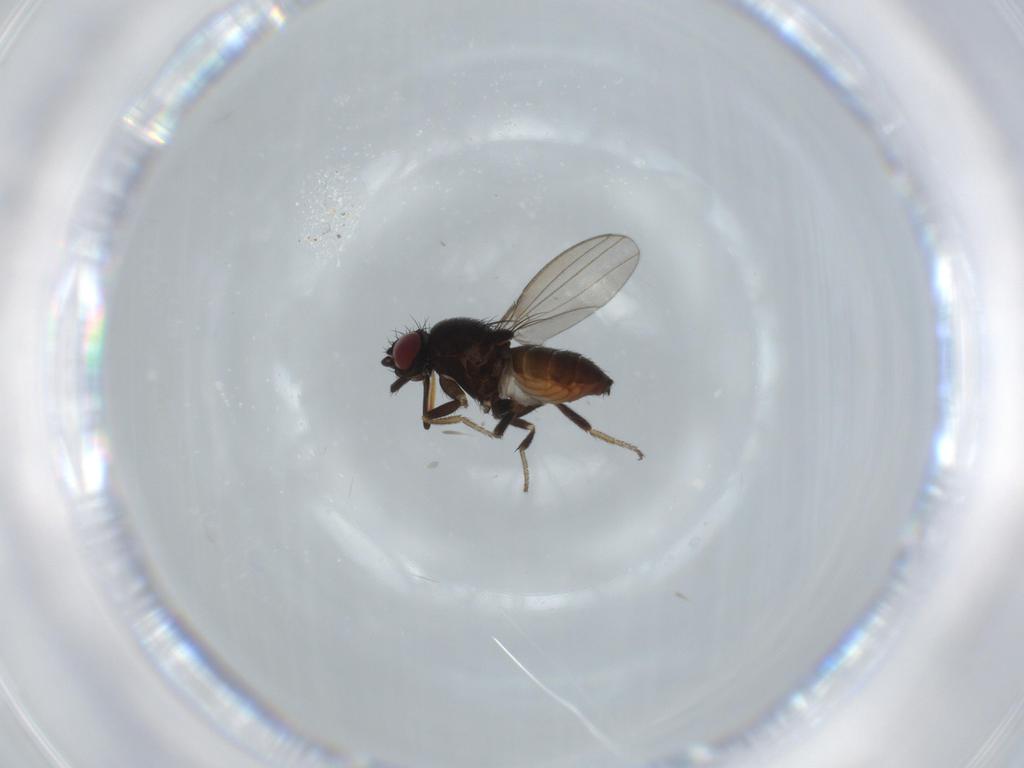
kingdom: Animalia
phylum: Arthropoda
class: Insecta
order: Diptera
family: Milichiidae
